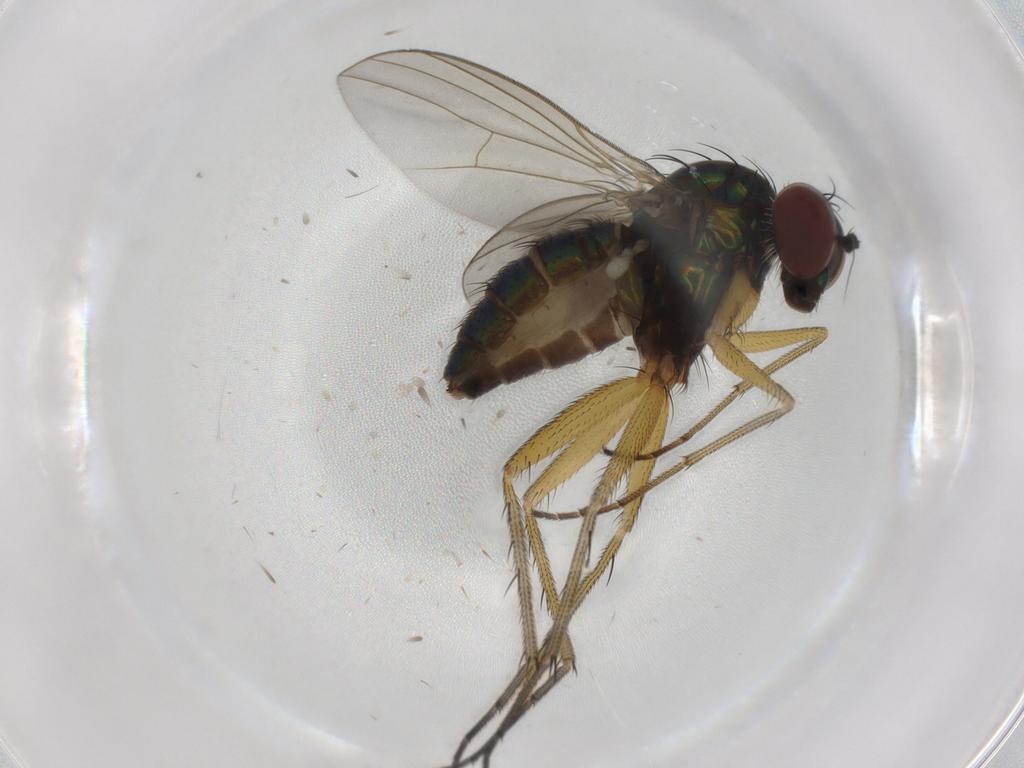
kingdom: Animalia
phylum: Arthropoda
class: Insecta
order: Diptera
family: Dolichopodidae
